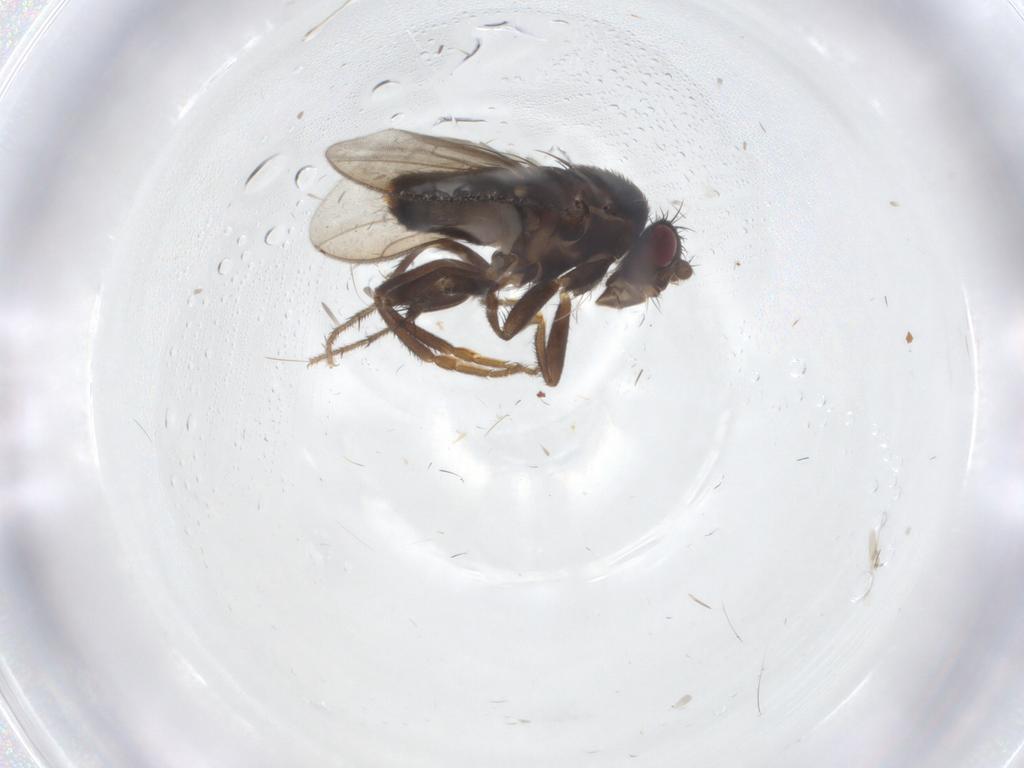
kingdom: Animalia
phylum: Arthropoda
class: Insecta
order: Diptera
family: Sphaeroceridae
